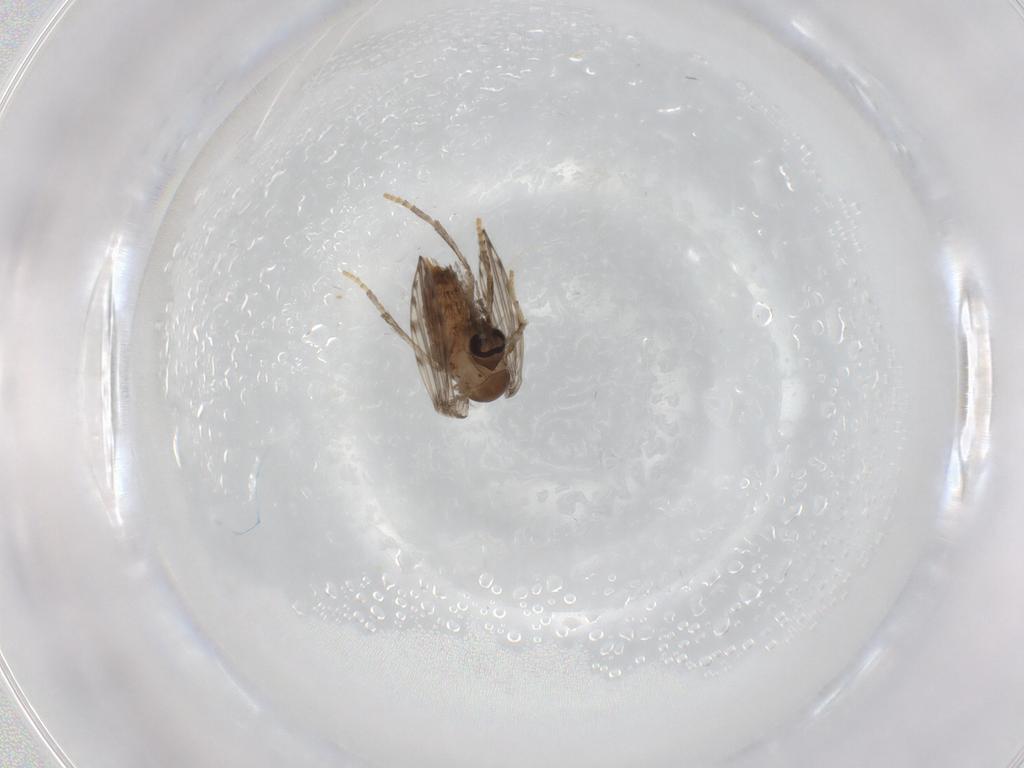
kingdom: Animalia
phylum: Arthropoda
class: Insecta
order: Diptera
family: Psychodidae
